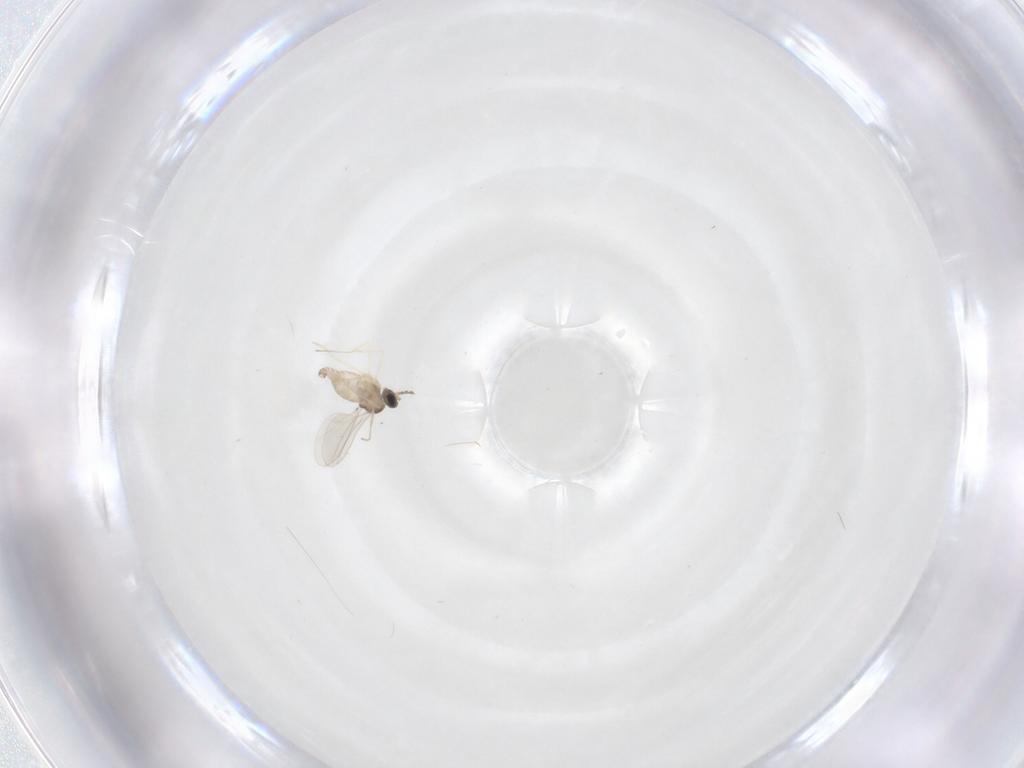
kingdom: Animalia
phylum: Arthropoda
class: Insecta
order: Diptera
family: Cecidomyiidae
